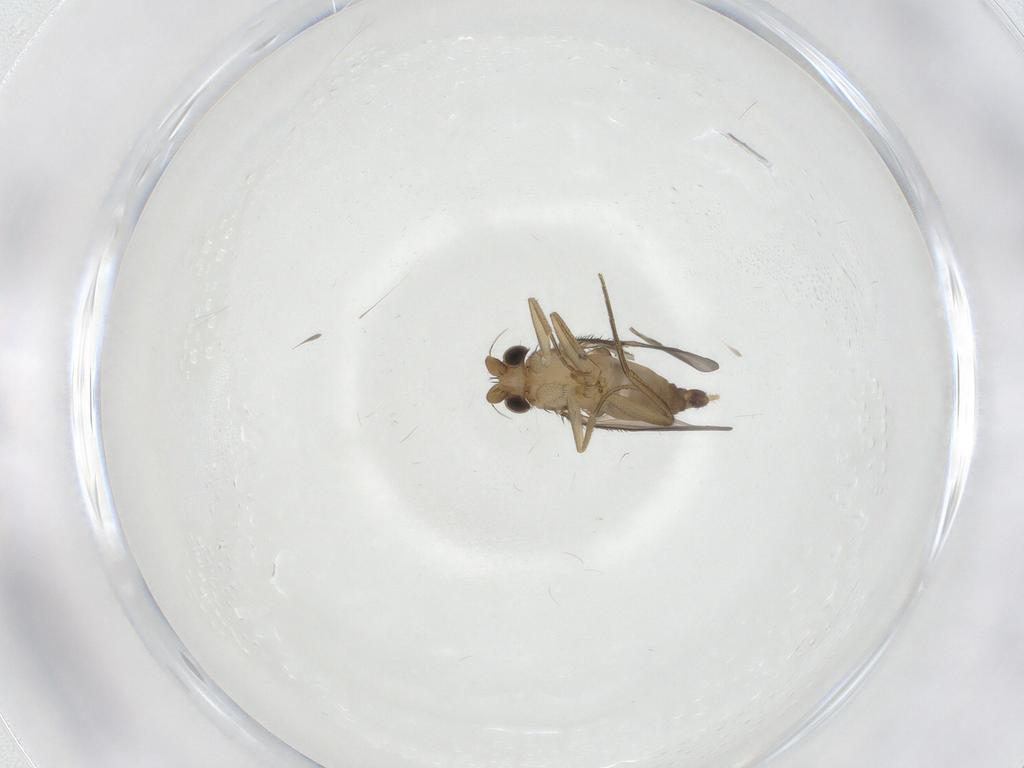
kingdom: Animalia
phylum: Arthropoda
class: Insecta
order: Diptera
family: Phoridae
